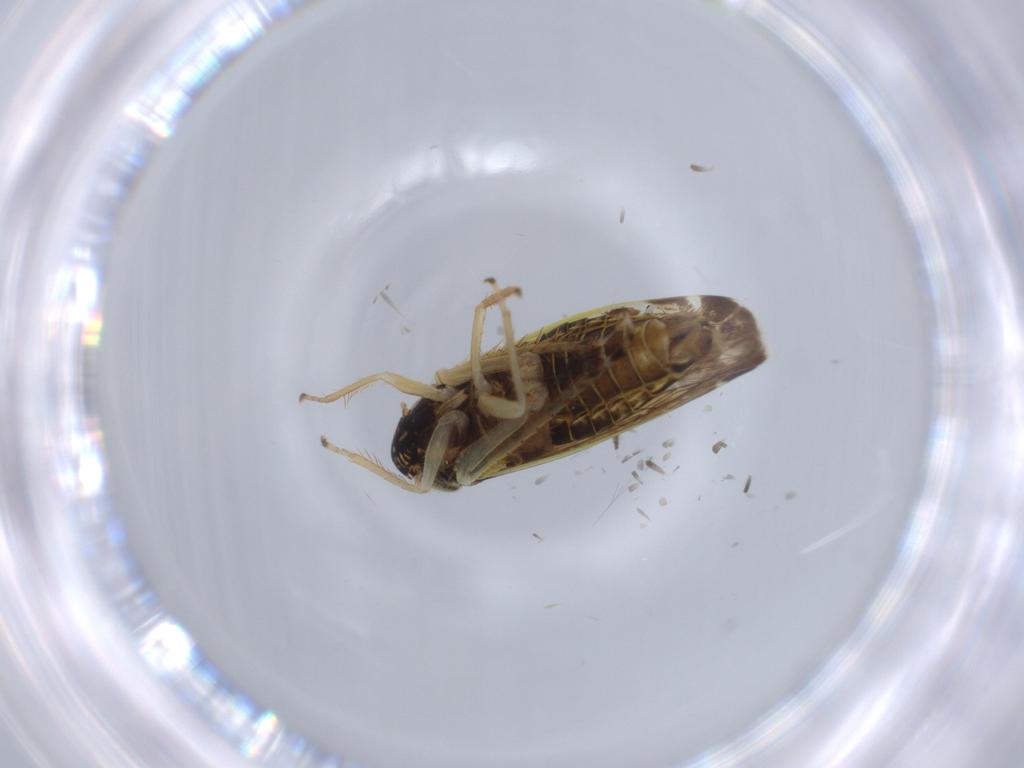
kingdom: Animalia
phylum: Arthropoda
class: Insecta
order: Hemiptera
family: Cicadellidae
